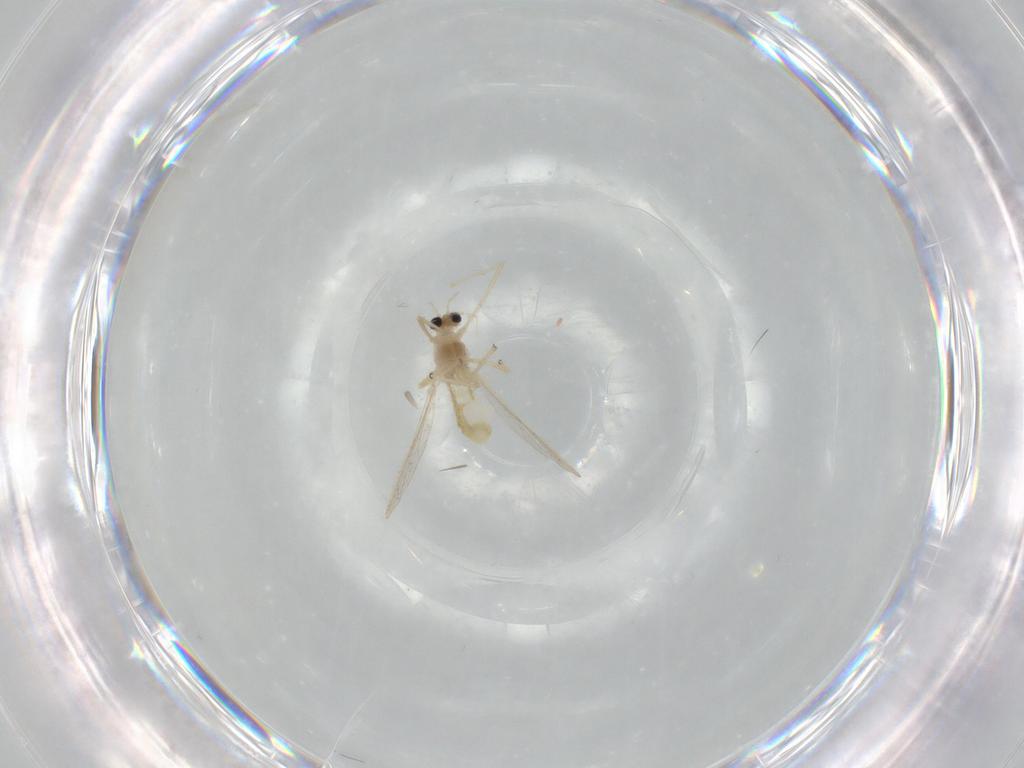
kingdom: Animalia
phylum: Arthropoda
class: Insecta
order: Diptera
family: Chironomidae
